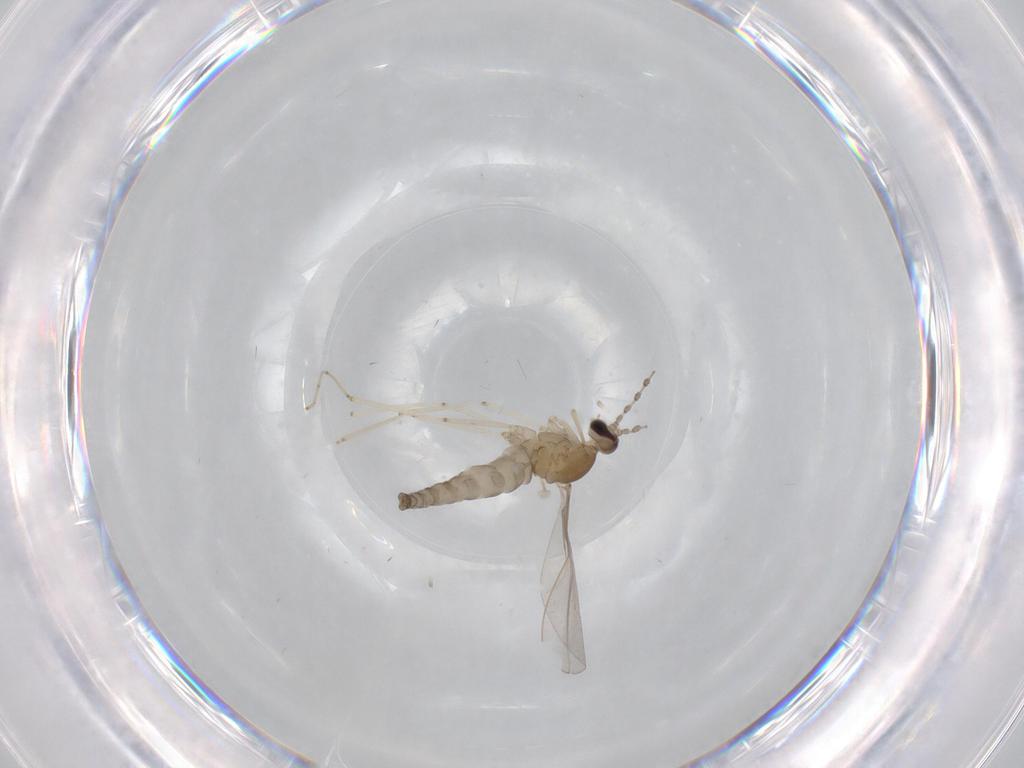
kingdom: Animalia
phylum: Arthropoda
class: Insecta
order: Diptera
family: Cecidomyiidae
